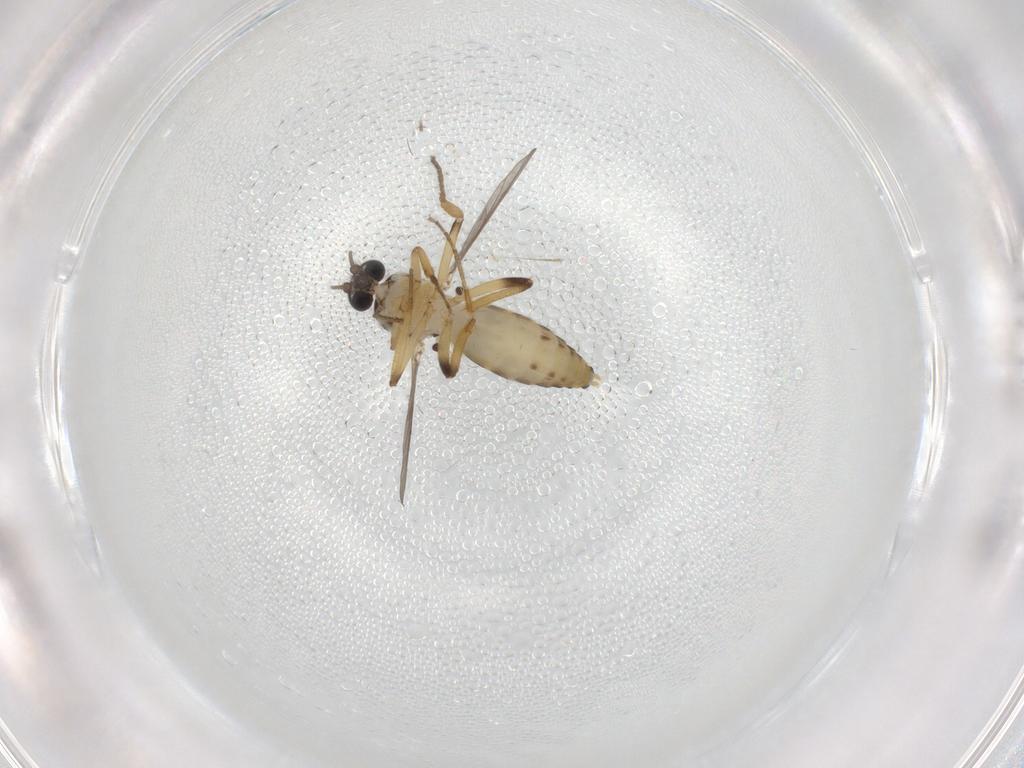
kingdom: Animalia
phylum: Arthropoda
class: Insecta
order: Diptera
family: Ceratopogonidae
